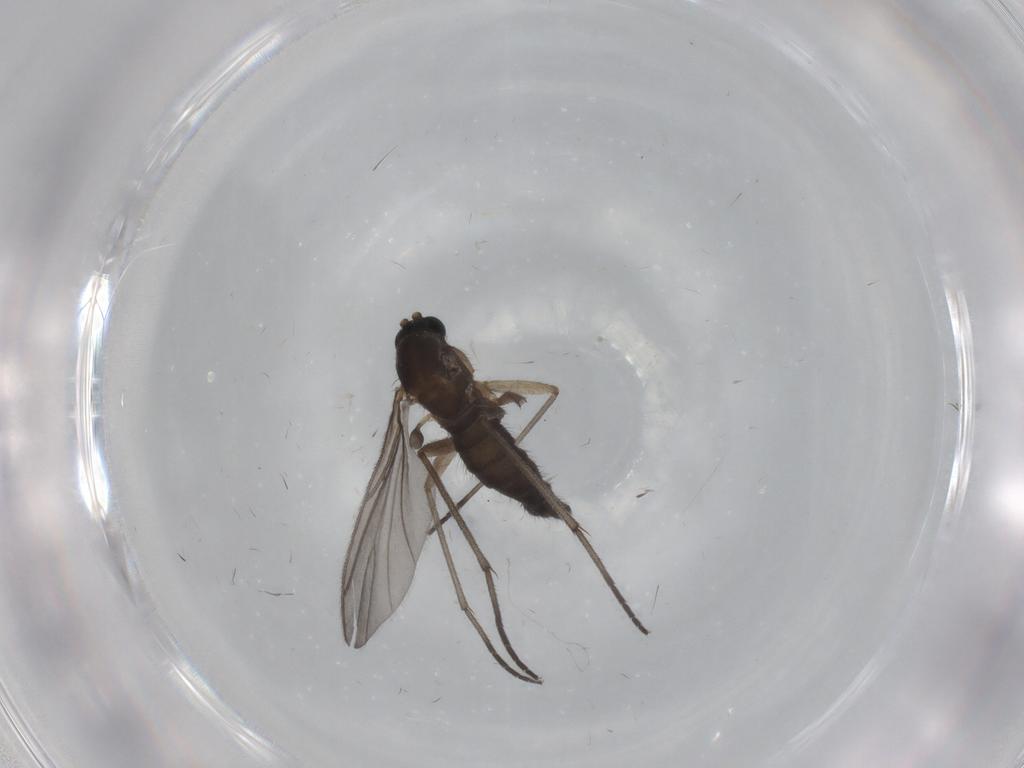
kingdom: Animalia
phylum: Arthropoda
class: Insecta
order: Diptera
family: Sciaridae
